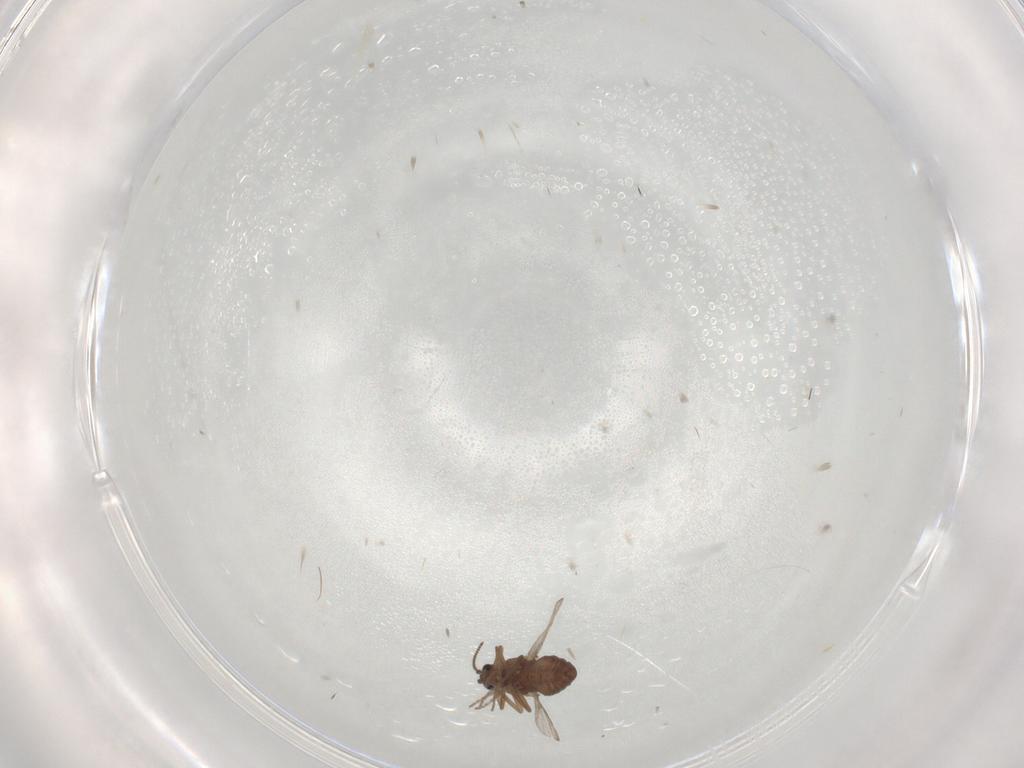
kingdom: Animalia
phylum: Arthropoda
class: Insecta
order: Diptera
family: Ceratopogonidae
